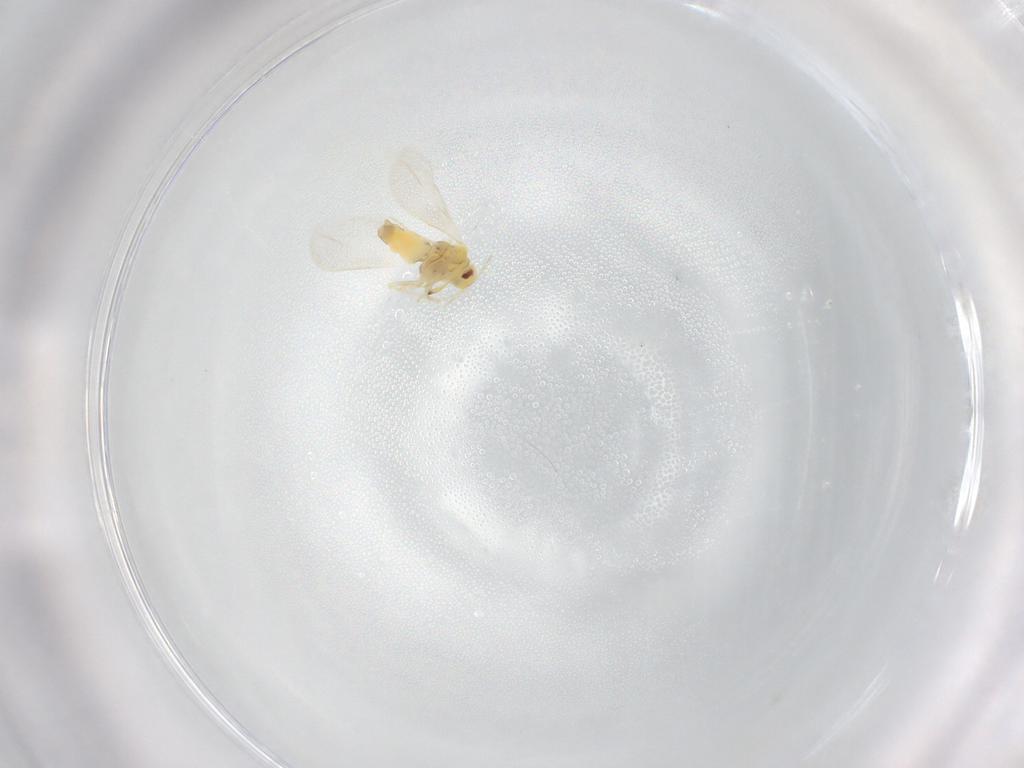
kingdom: Animalia
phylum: Arthropoda
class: Insecta
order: Hemiptera
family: Aleyrodidae
